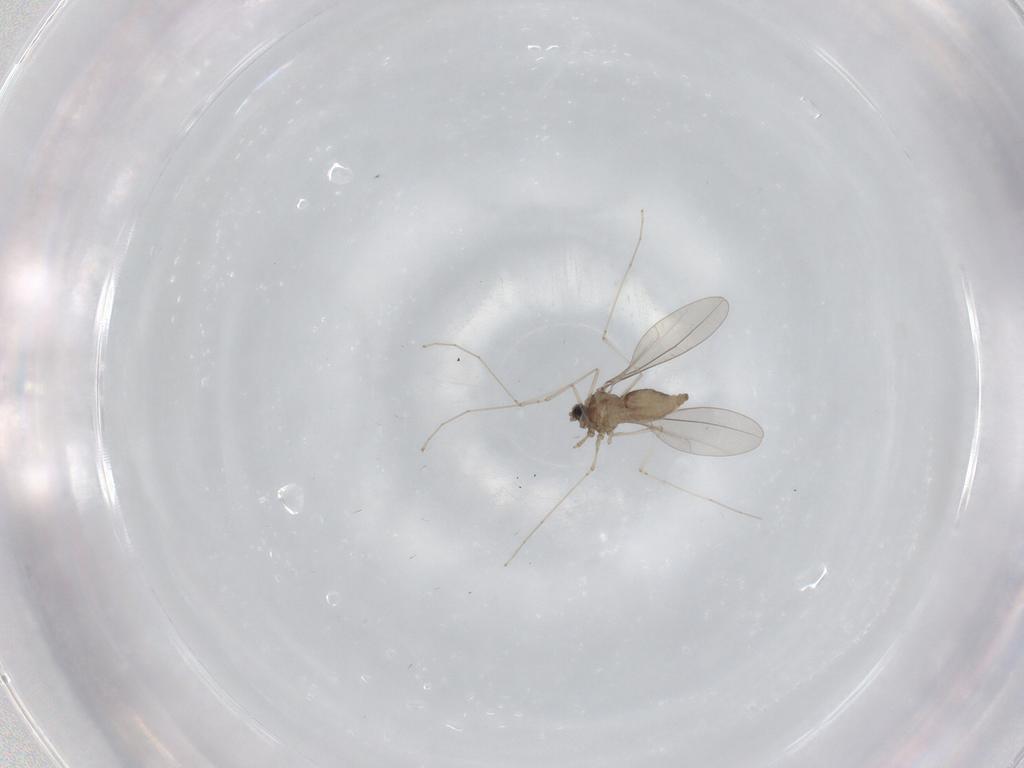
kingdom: Animalia
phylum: Arthropoda
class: Insecta
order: Diptera
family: Cecidomyiidae
